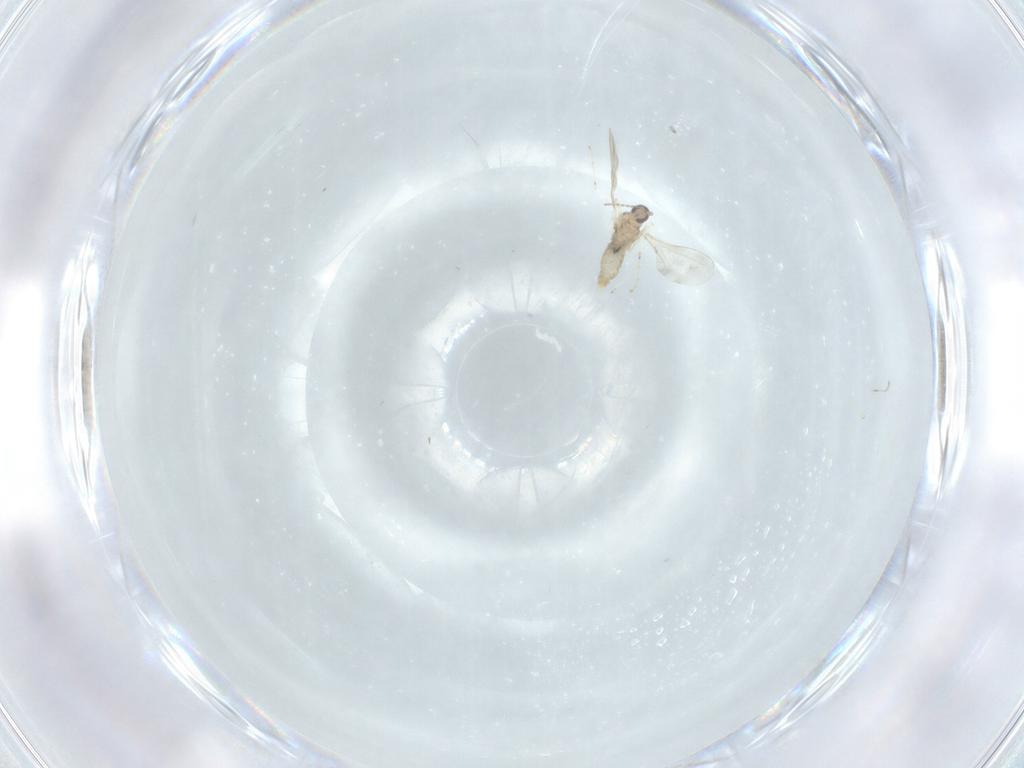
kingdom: Animalia
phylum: Arthropoda
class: Insecta
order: Diptera
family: Cecidomyiidae
